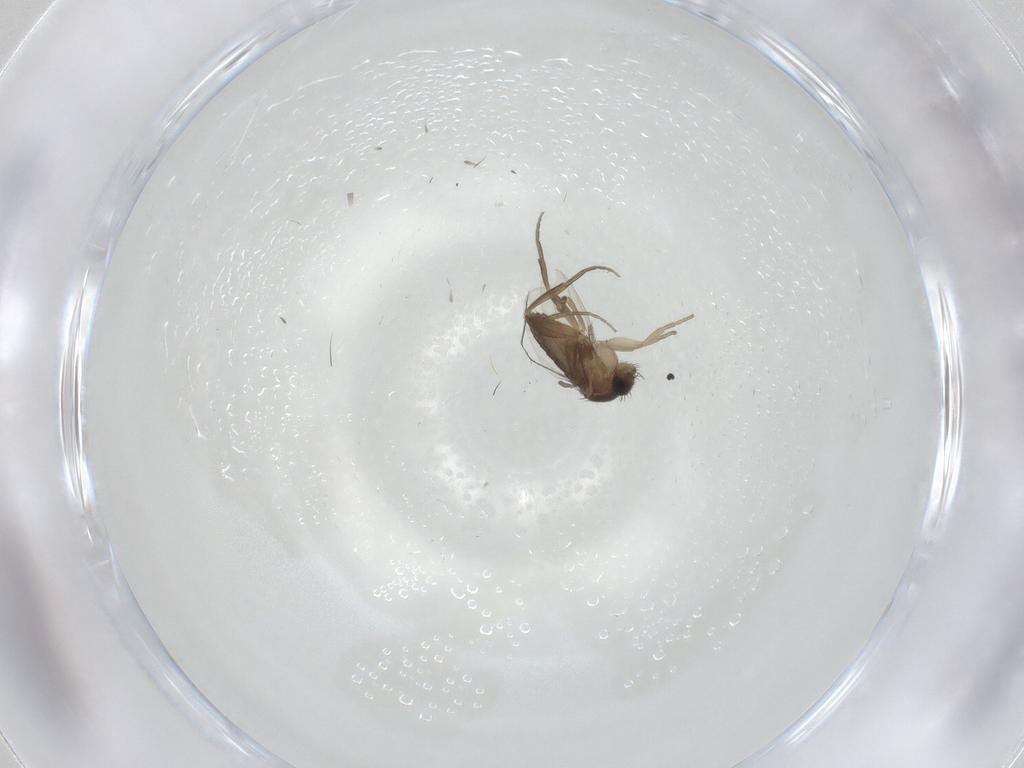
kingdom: Animalia
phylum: Arthropoda
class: Insecta
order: Diptera
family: Phoridae
